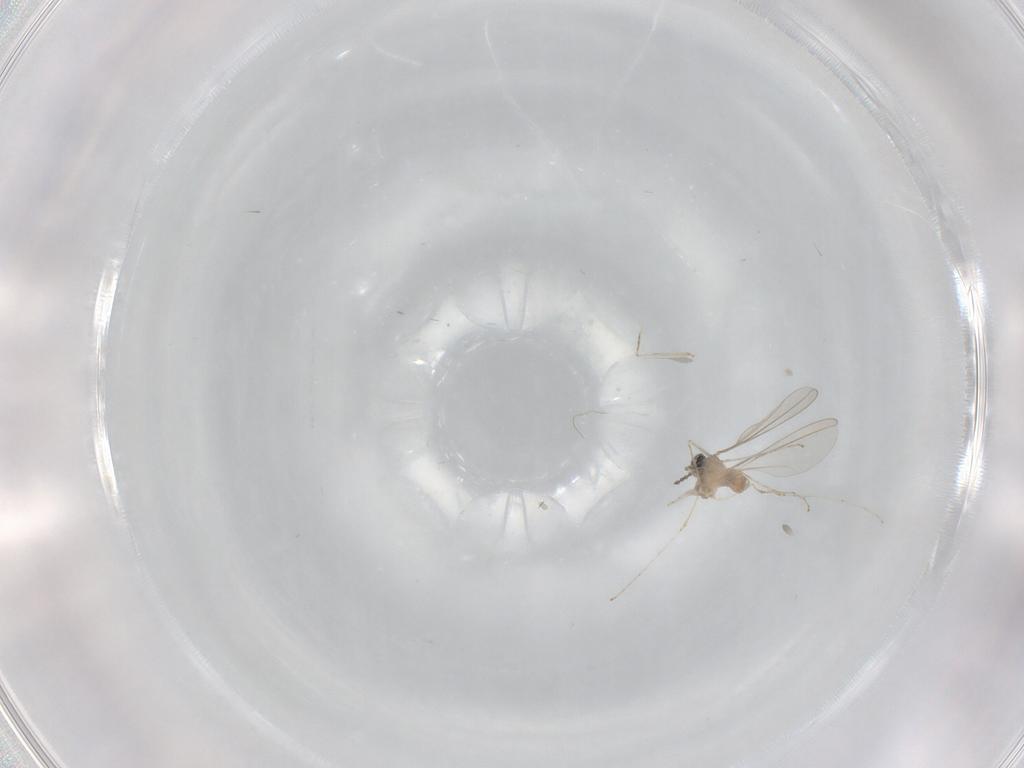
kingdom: Animalia
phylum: Arthropoda
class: Insecta
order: Diptera
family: Cecidomyiidae
